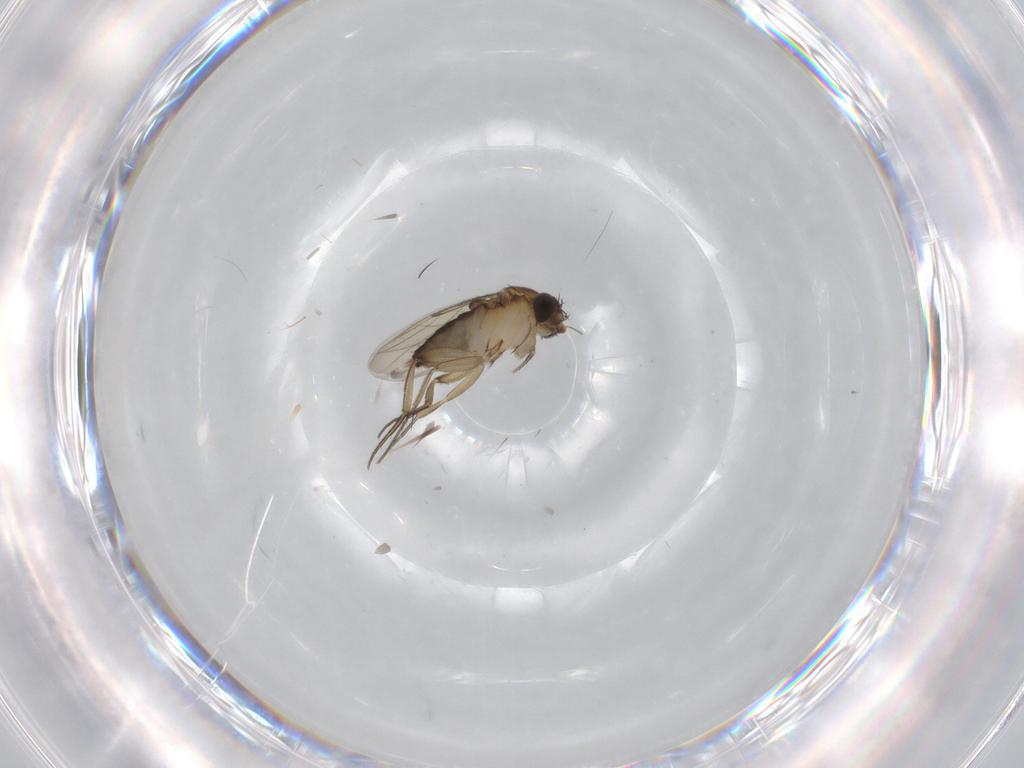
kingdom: Animalia
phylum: Arthropoda
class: Insecta
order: Diptera
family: Phoridae
